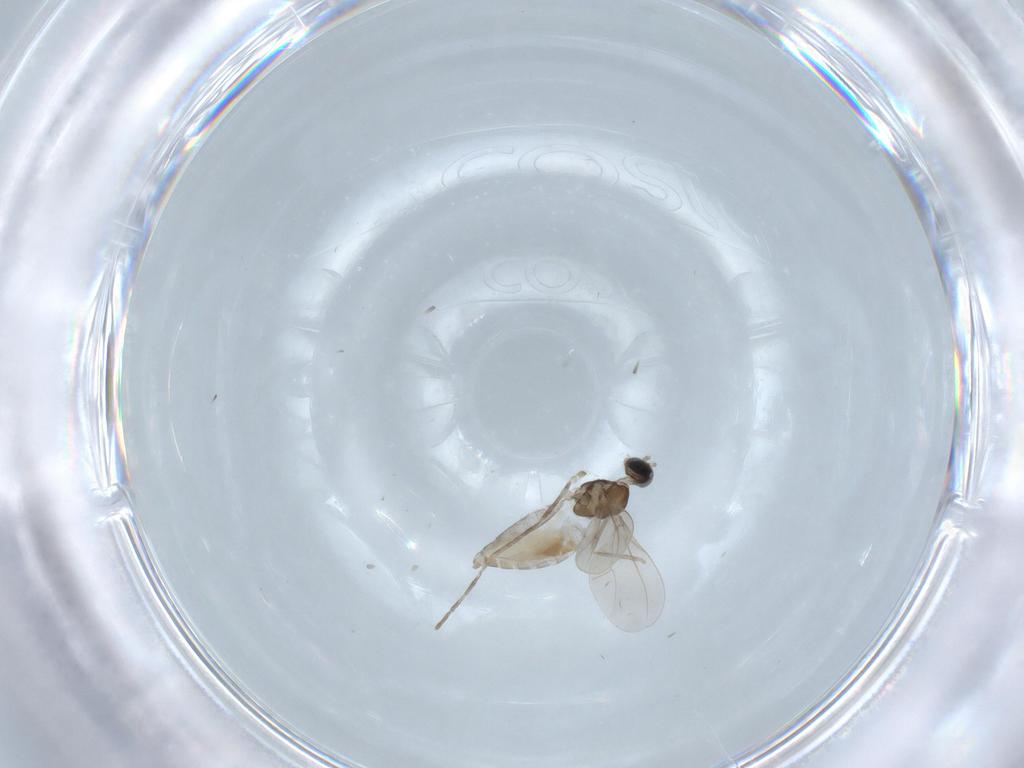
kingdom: Animalia
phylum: Arthropoda
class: Insecta
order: Diptera
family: Cecidomyiidae
